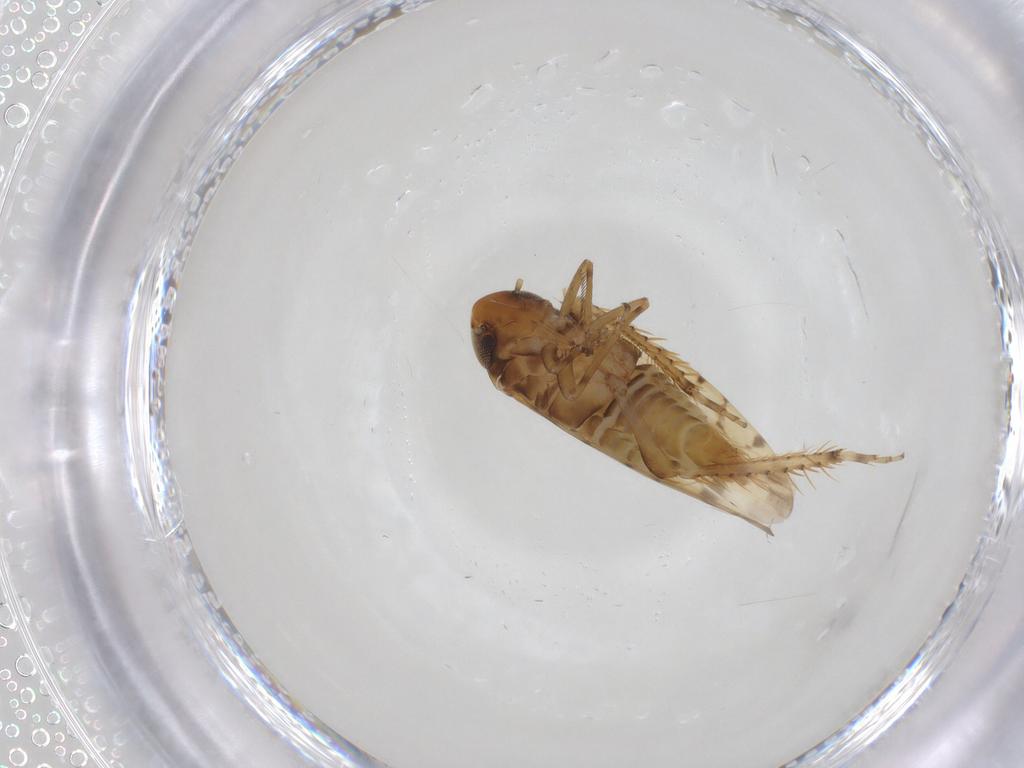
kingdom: Animalia
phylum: Arthropoda
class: Insecta
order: Hemiptera
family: Cicadellidae
